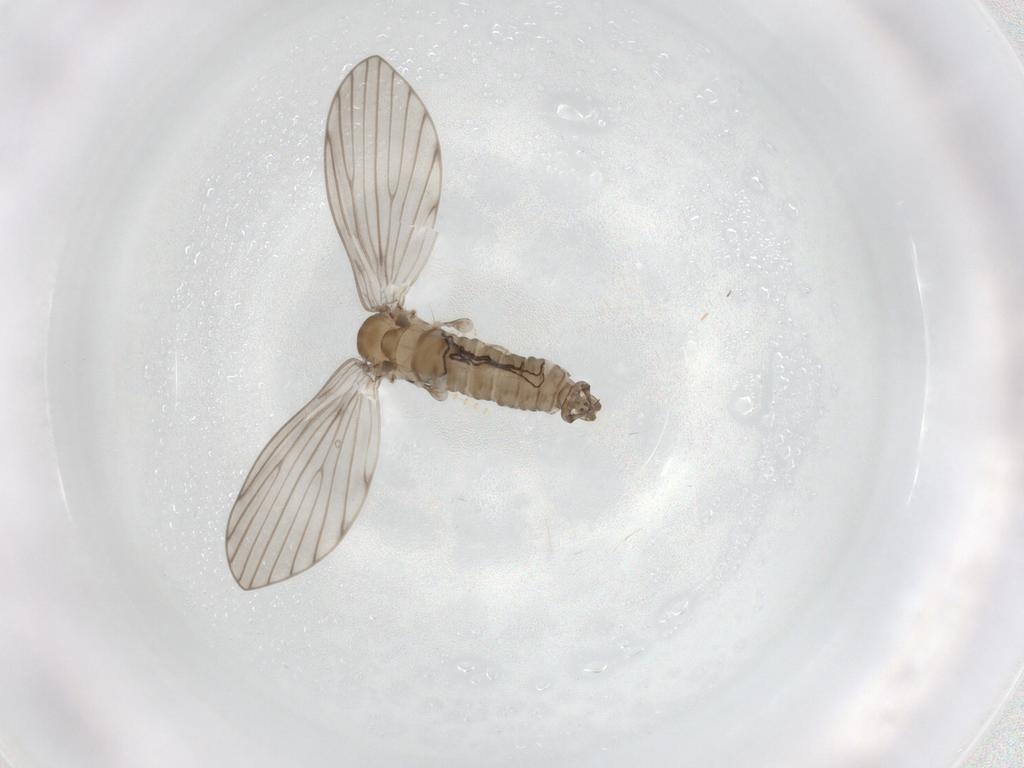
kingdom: Animalia
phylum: Arthropoda
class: Insecta
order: Diptera
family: Psychodidae
